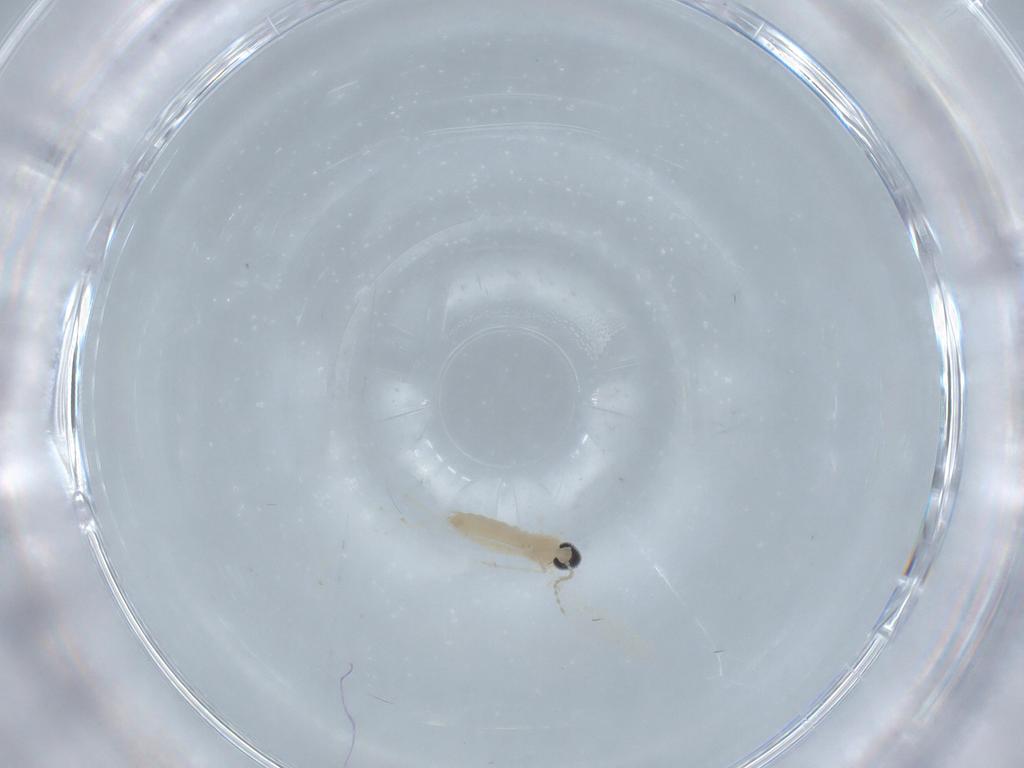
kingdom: Animalia
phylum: Arthropoda
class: Insecta
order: Diptera
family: Chironomidae
